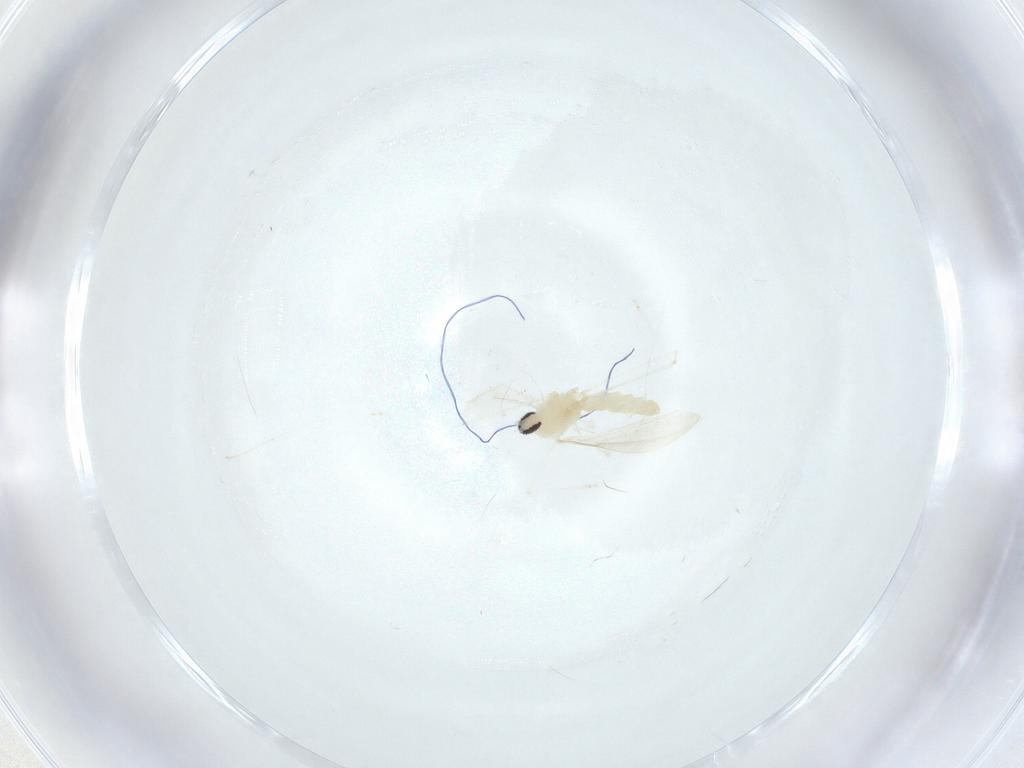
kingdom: Animalia
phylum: Arthropoda
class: Insecta
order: Diptera
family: Cecidomyiidae
